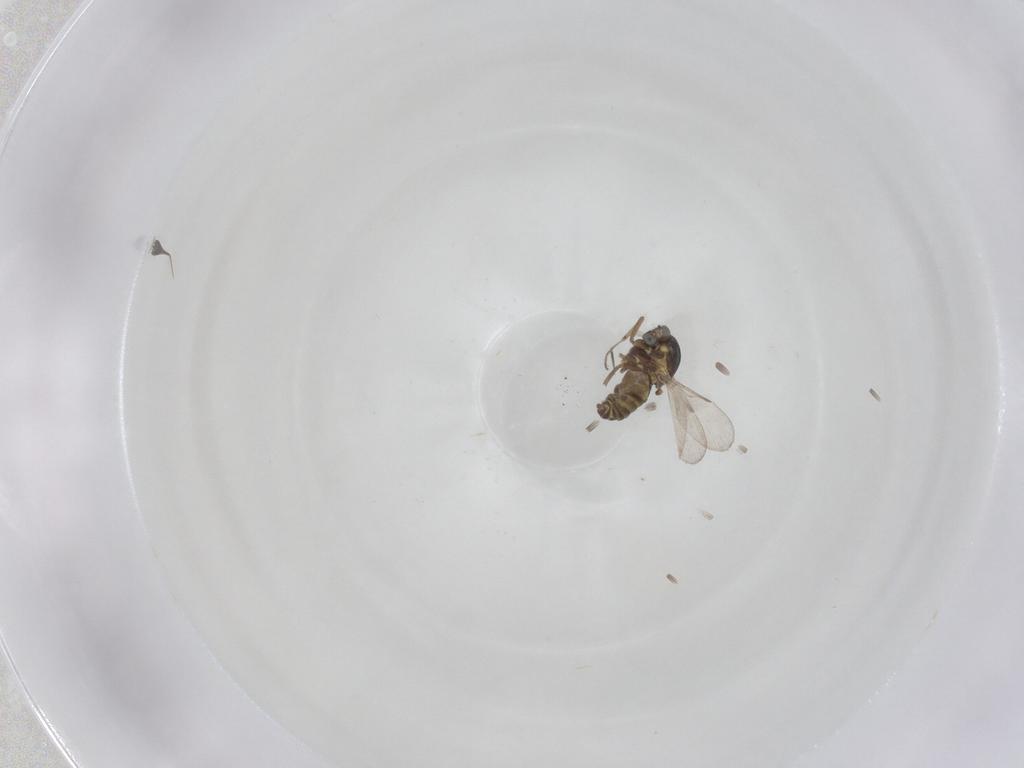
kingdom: Animalia
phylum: Arthropoda
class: Insecta
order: Diptera
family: Ceratopogonidae
